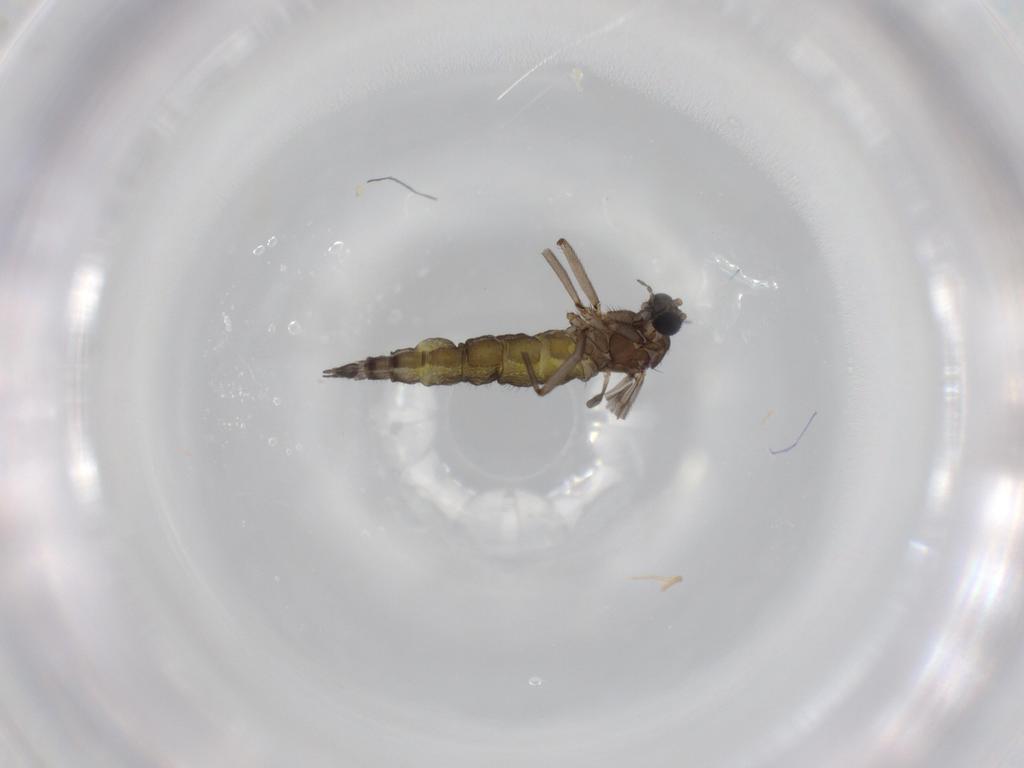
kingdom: Animalia
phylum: Arthropoda
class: Insecta
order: Diptera
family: Sciaridae
